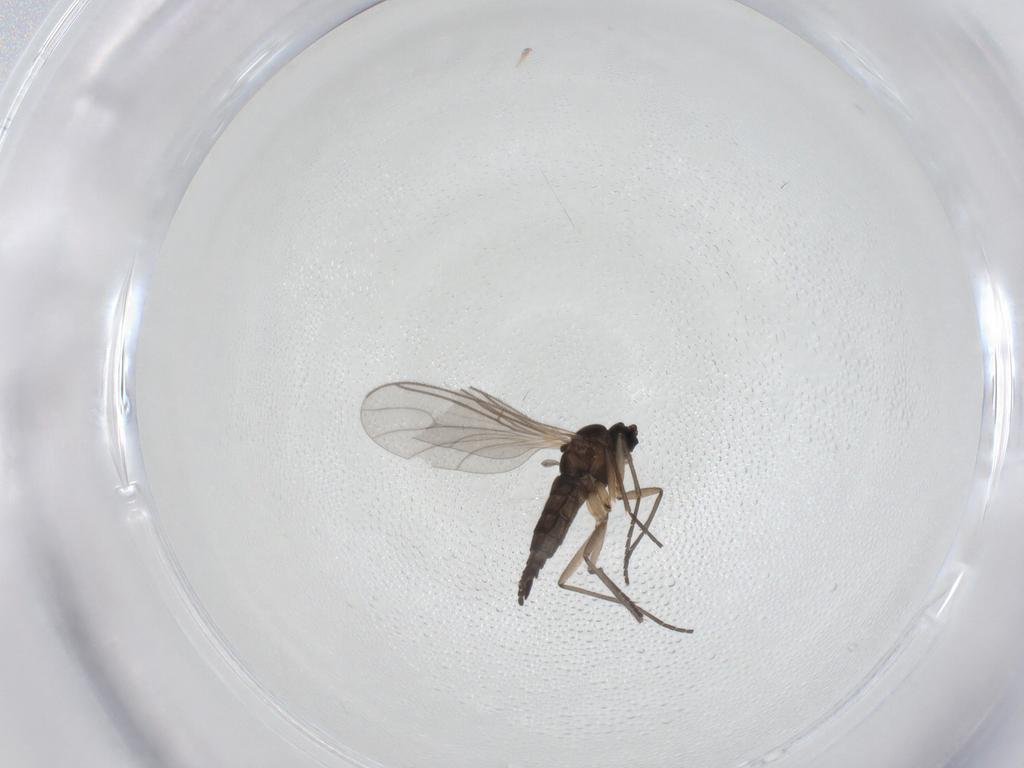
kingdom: Animalia
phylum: Arthropoda
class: Insecta
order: Diptera
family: Sciaridae
